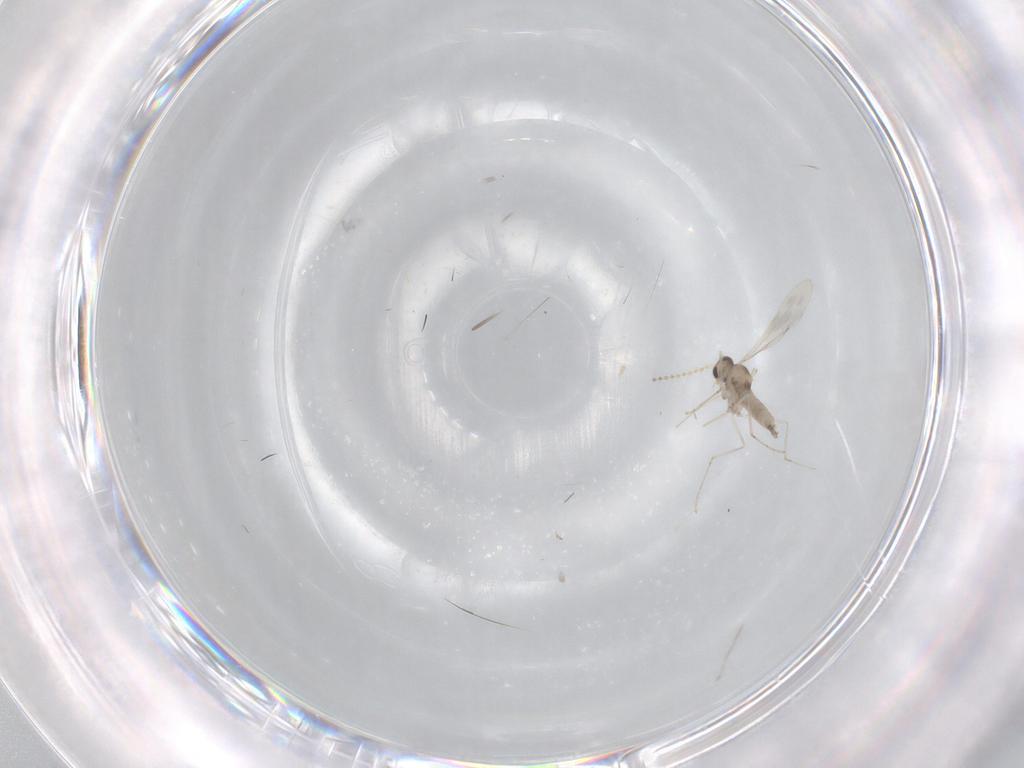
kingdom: Animalia
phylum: Arthropoda
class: Insecta
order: Diptera
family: Cecidomyiidae
